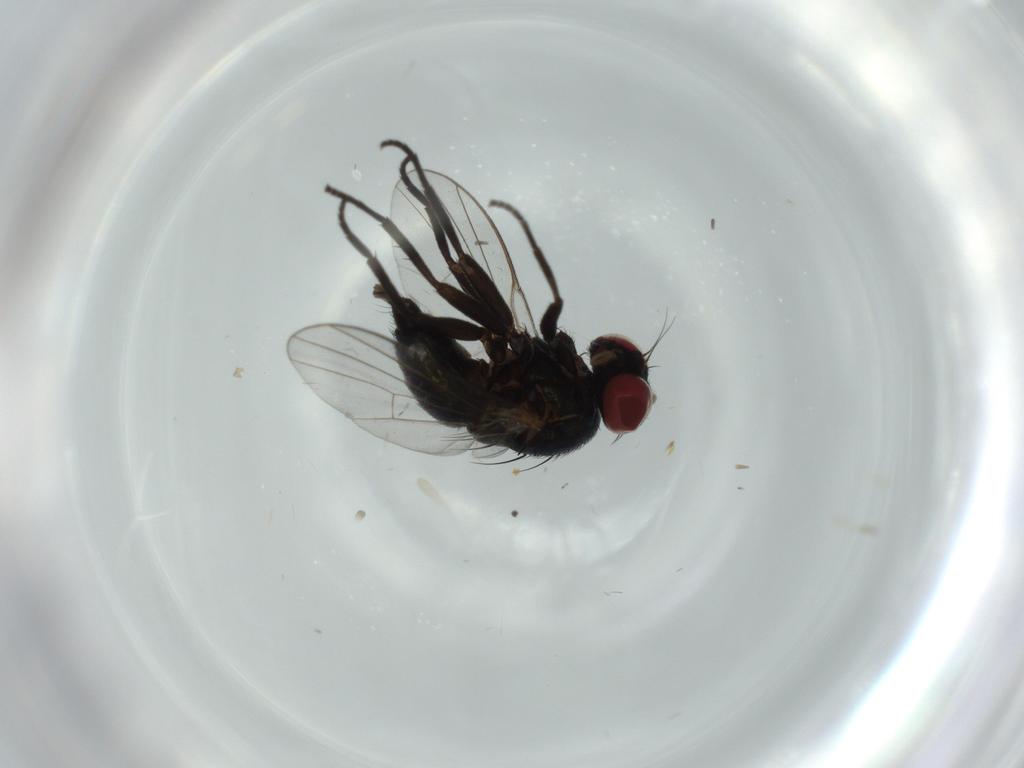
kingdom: Animalia
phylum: Arthropoda
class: Insecta
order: Diptera
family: Agromyzidae
